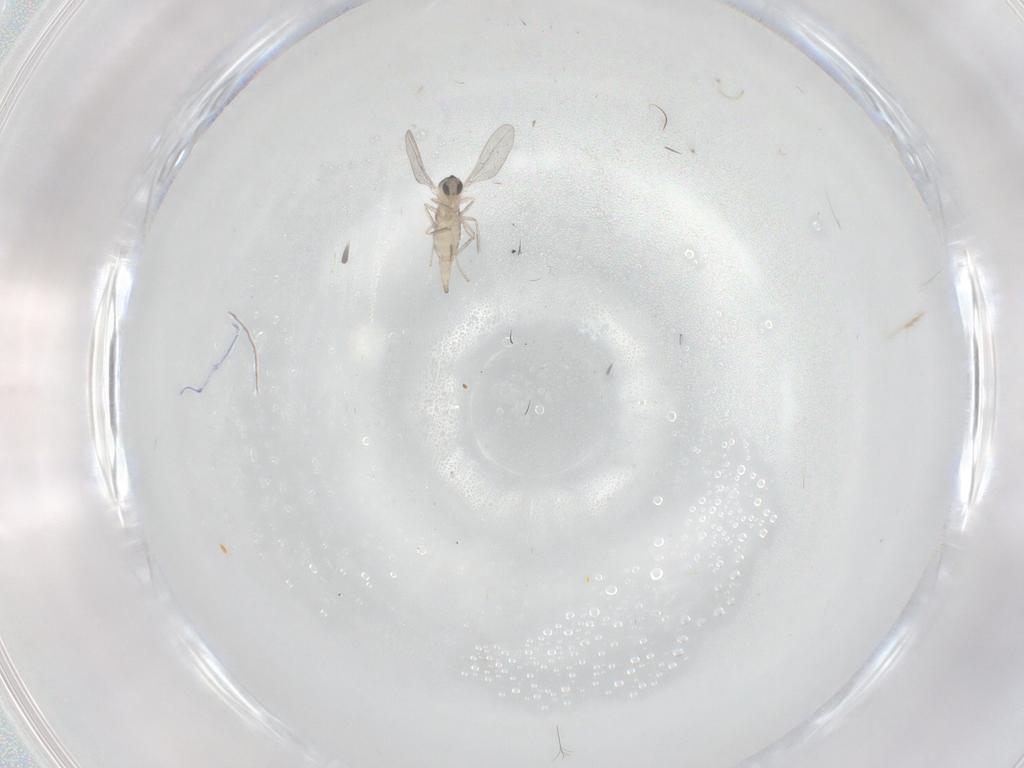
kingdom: Animalia
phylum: Arthropoda
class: Insecta
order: Diptera
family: Cecidomyiidae
